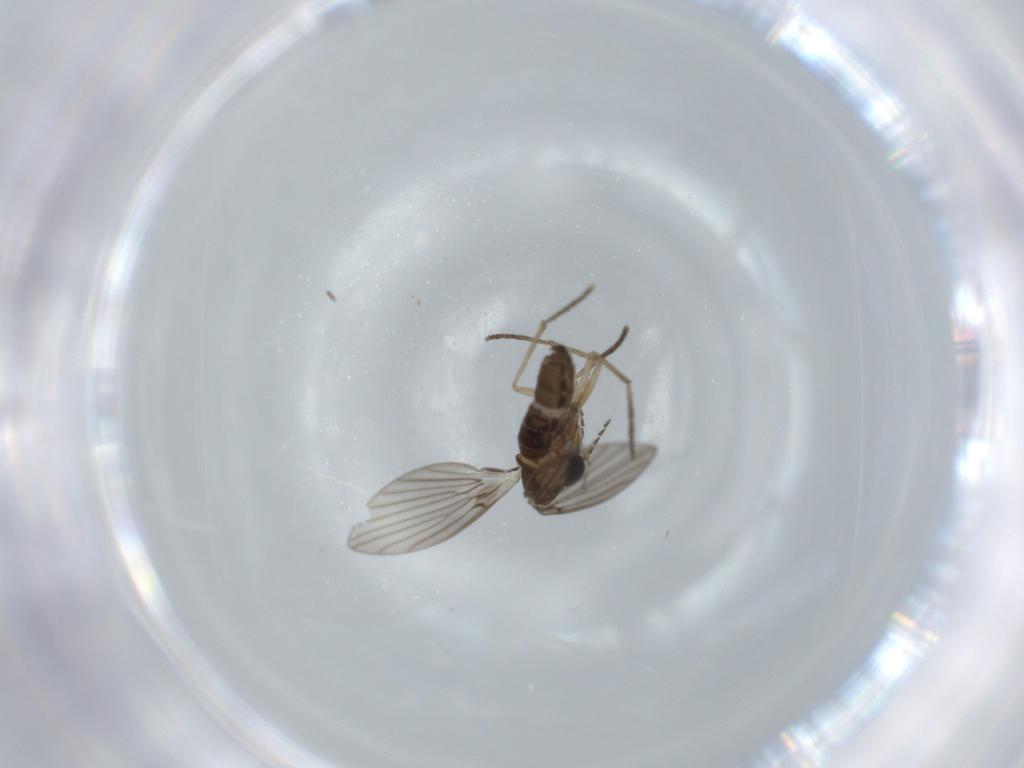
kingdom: Animalia
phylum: Arthropoda
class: Insecta
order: Diptera
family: Psychodidae
